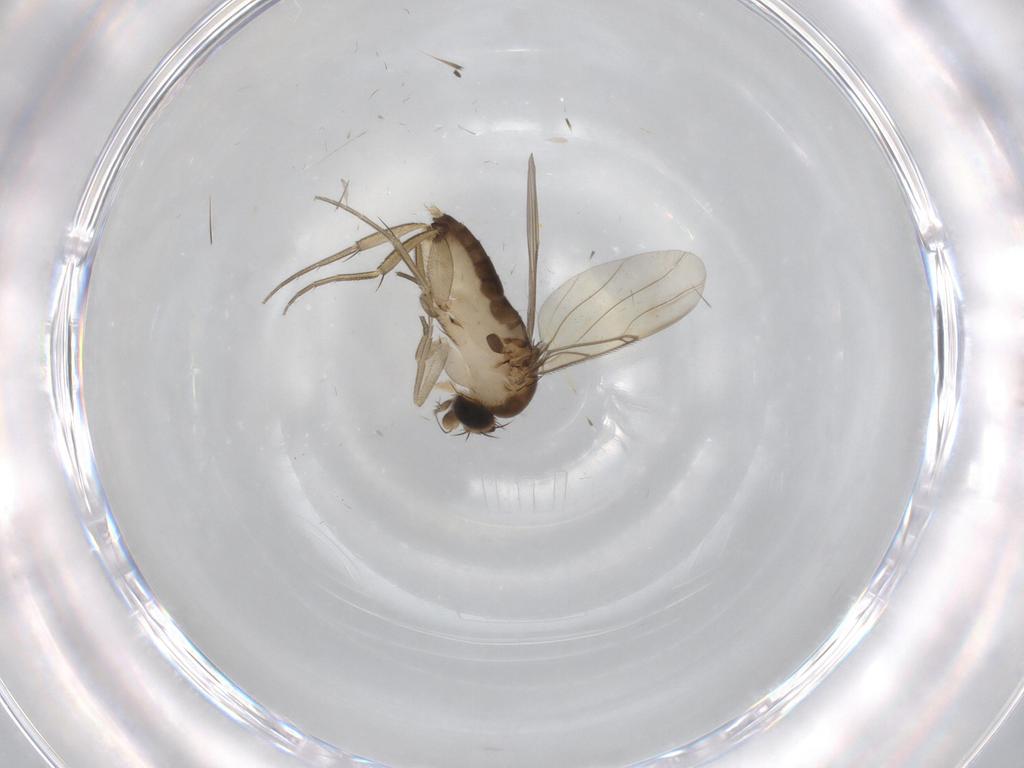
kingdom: Animalia
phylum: Arthropoda
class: Insecta
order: Diptera
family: Phoridae
